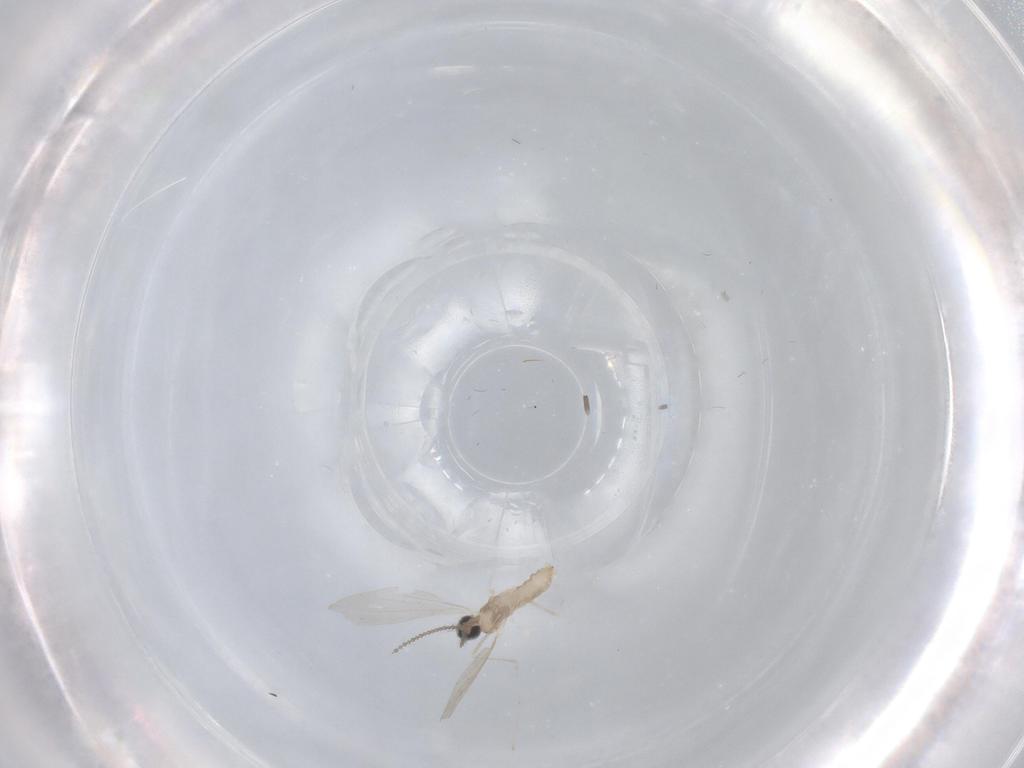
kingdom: Animalia
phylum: Arthropoda
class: Insecta
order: Diptera
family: Cecidomyiidae
